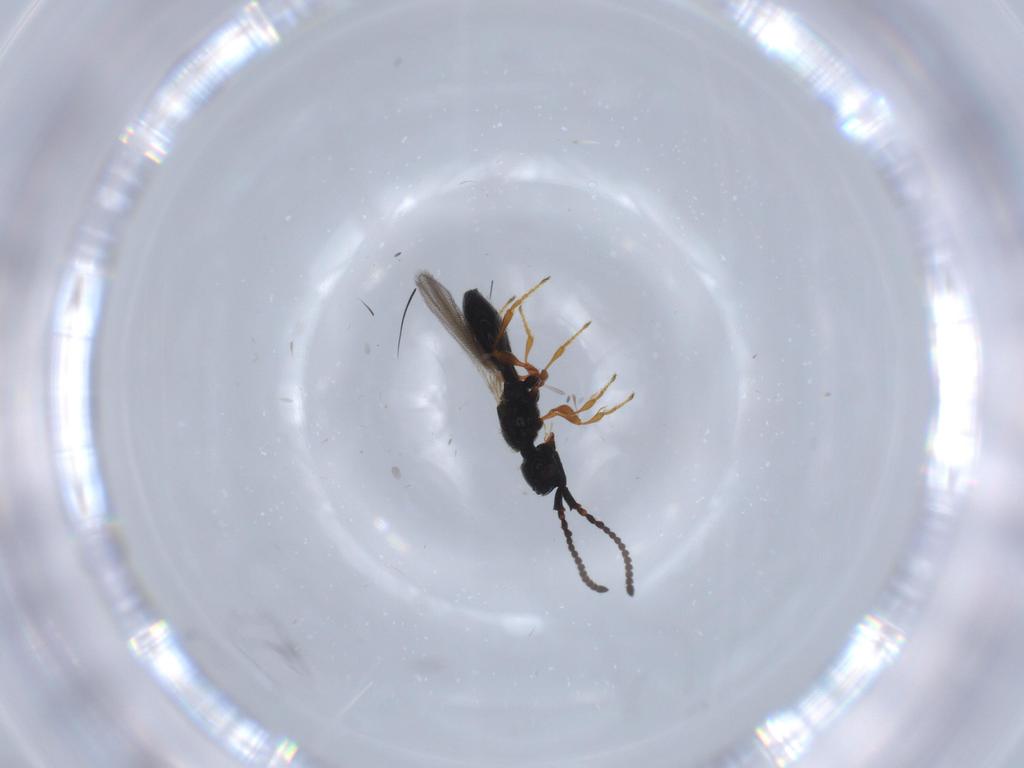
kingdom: Animalia
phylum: Arthropoda
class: Insecta
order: Hymenoptera
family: Diapriidae
